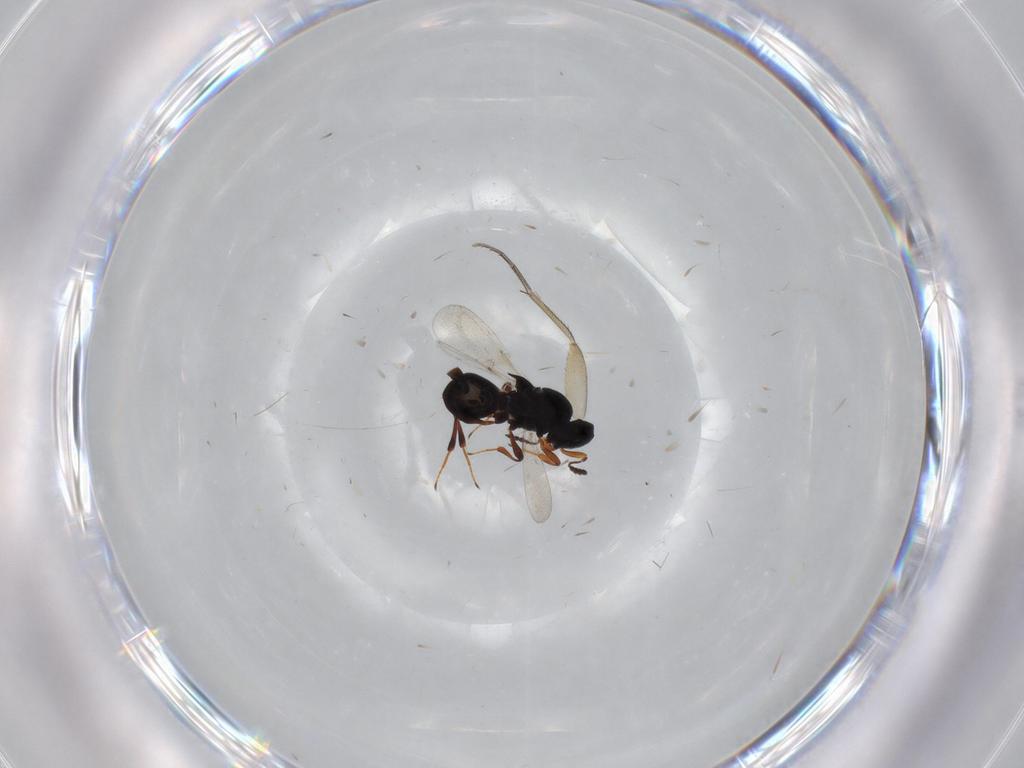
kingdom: Animalia
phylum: Arthropoda
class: Insecta
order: Hymenoptera
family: Platygastridae
